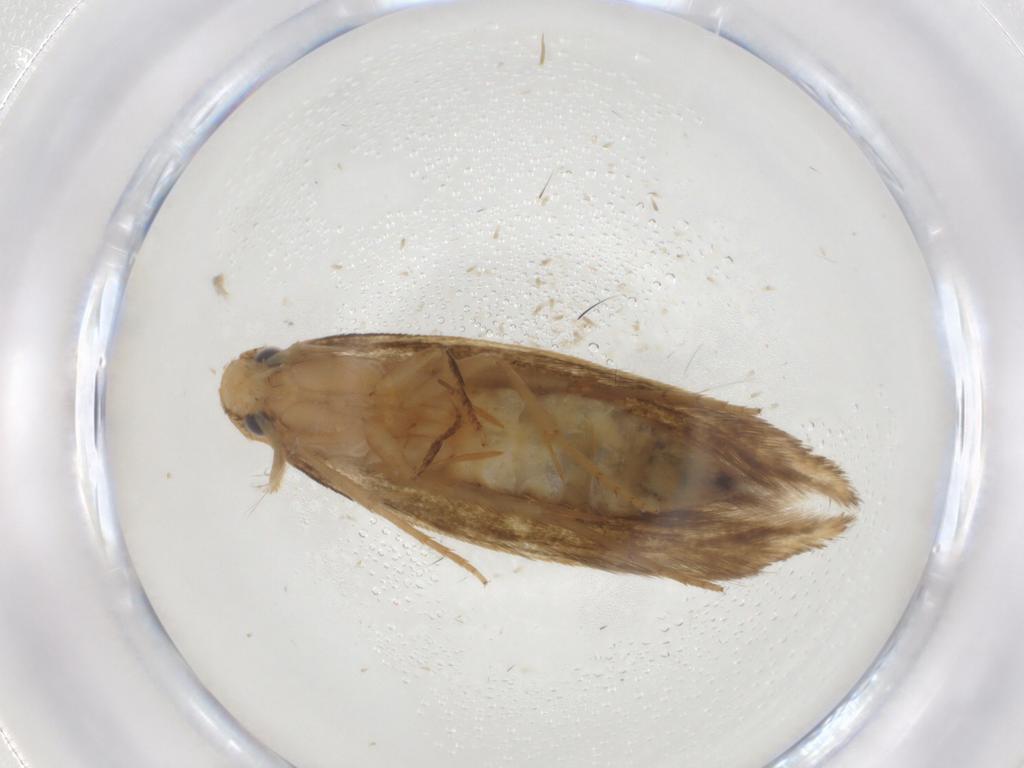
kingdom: Animalia
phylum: Arthropoda
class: Insecta
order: Lepidoptera
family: Tineidae
